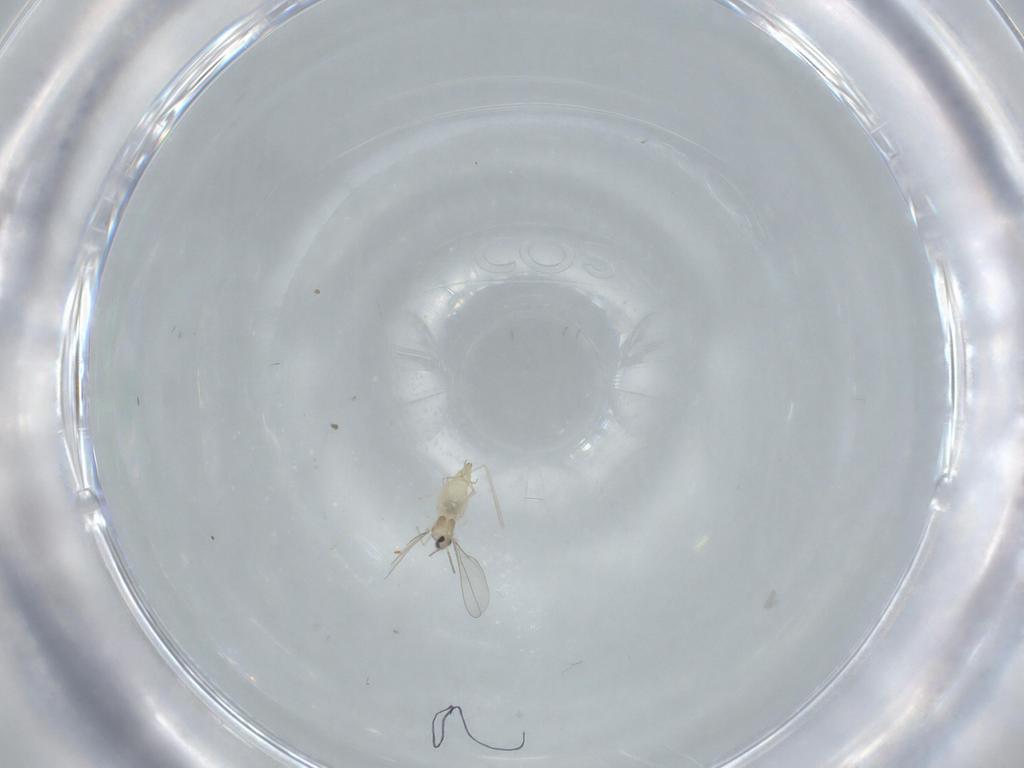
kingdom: Animalia
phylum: Arthropoda
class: Insecta
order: Diptera
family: Cecidomyiidae
